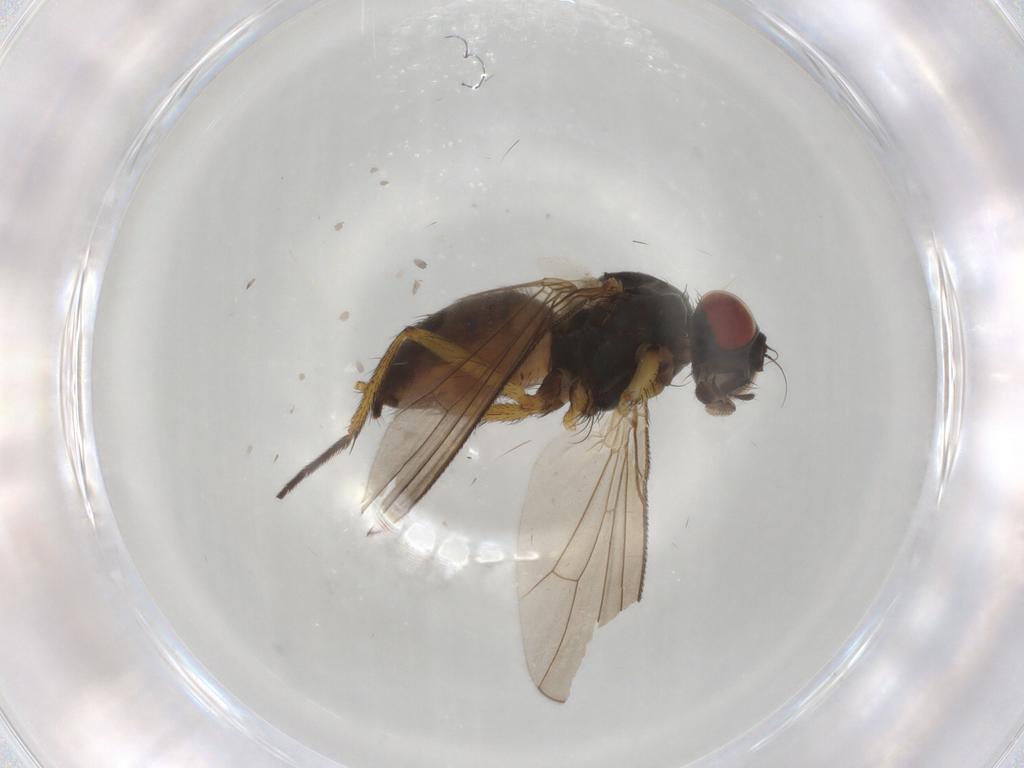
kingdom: Animalia
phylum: Arthropoda
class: Insecta
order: Diptera
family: Muscidae
